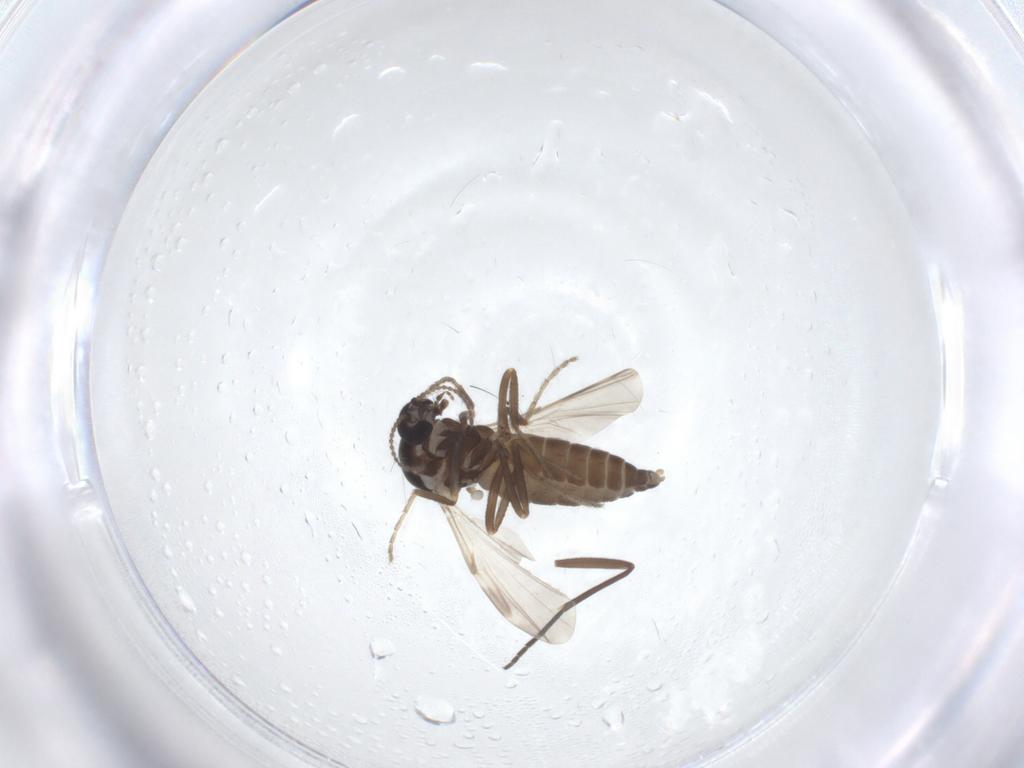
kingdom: Animalia
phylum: Arthropoda
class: Insecta
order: Diptera
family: Ceratopogonidae
